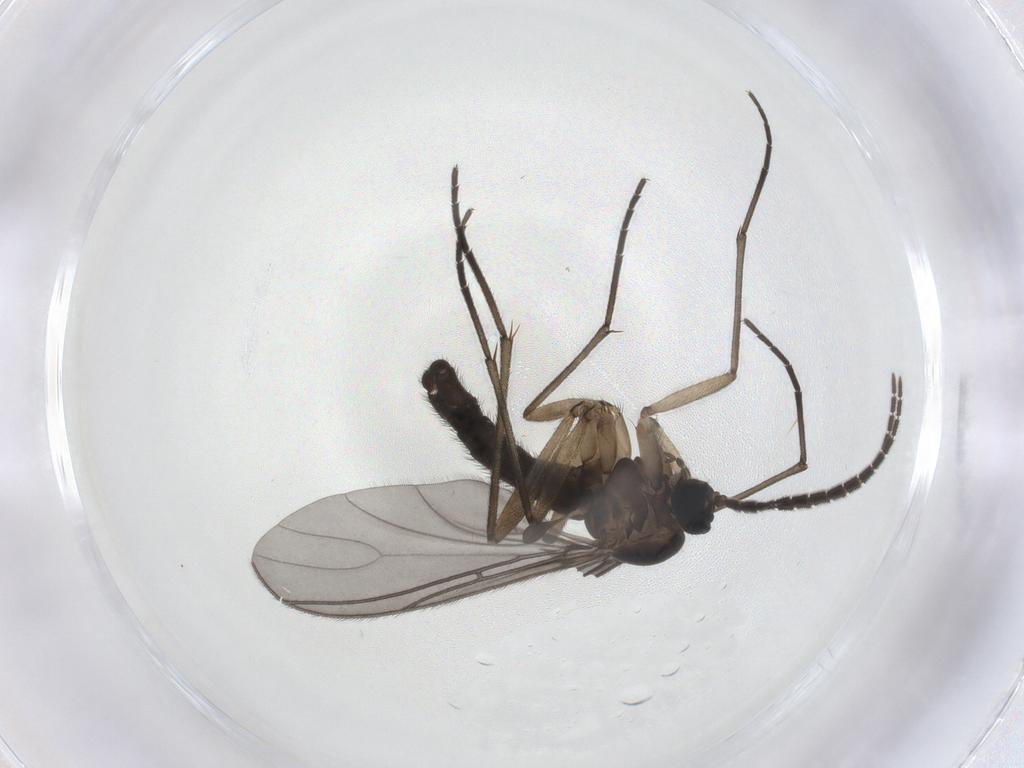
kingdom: Animalia
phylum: Arthropoda
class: Insecta
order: Diptera
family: Sciaridae
